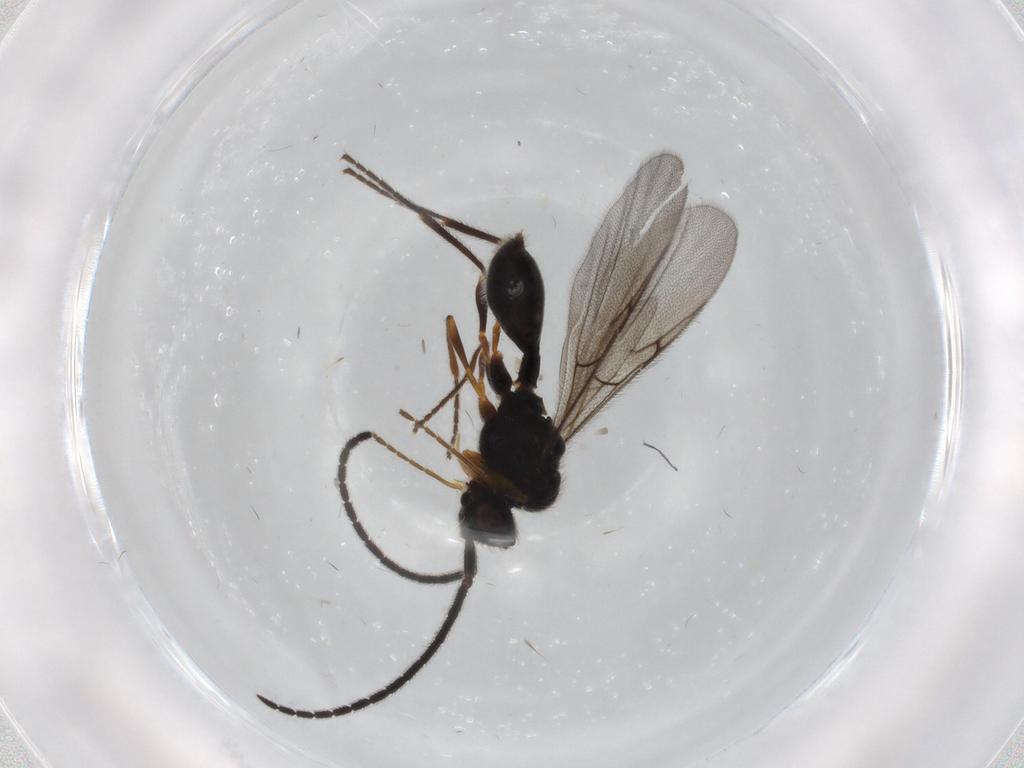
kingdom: Animalia
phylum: Arthropoda
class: Insecta
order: Hymenoptera
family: Diapriidae
